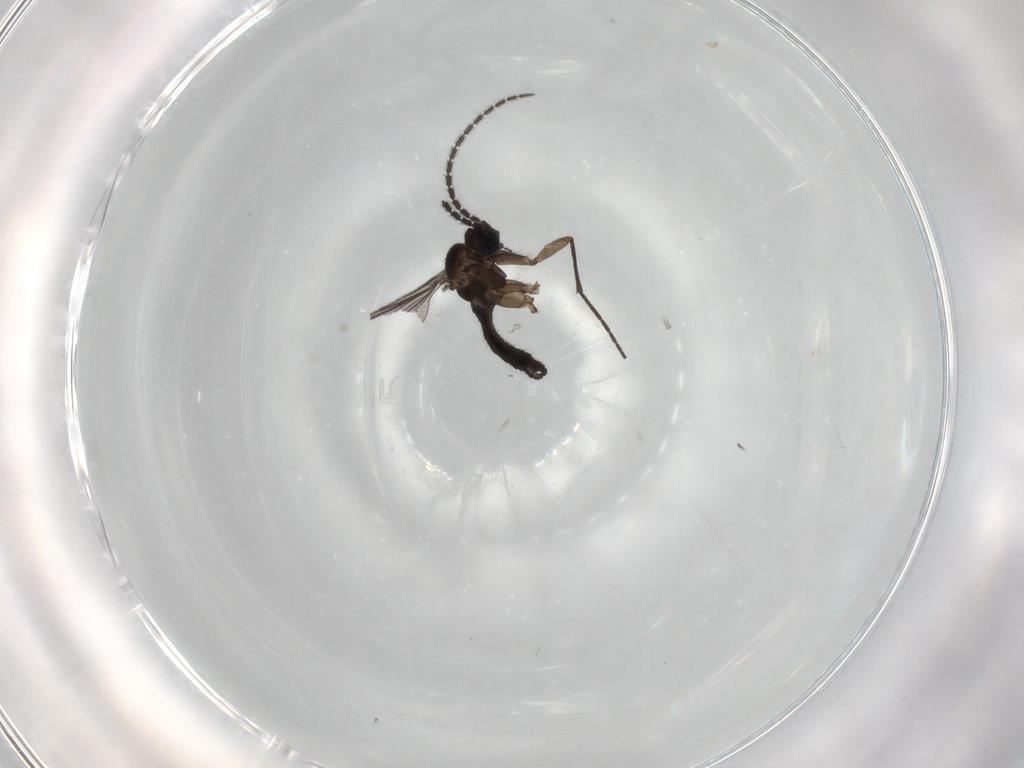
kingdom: Animalia
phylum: Arthropoda
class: Insecta
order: Diptera
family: Sciaridae
